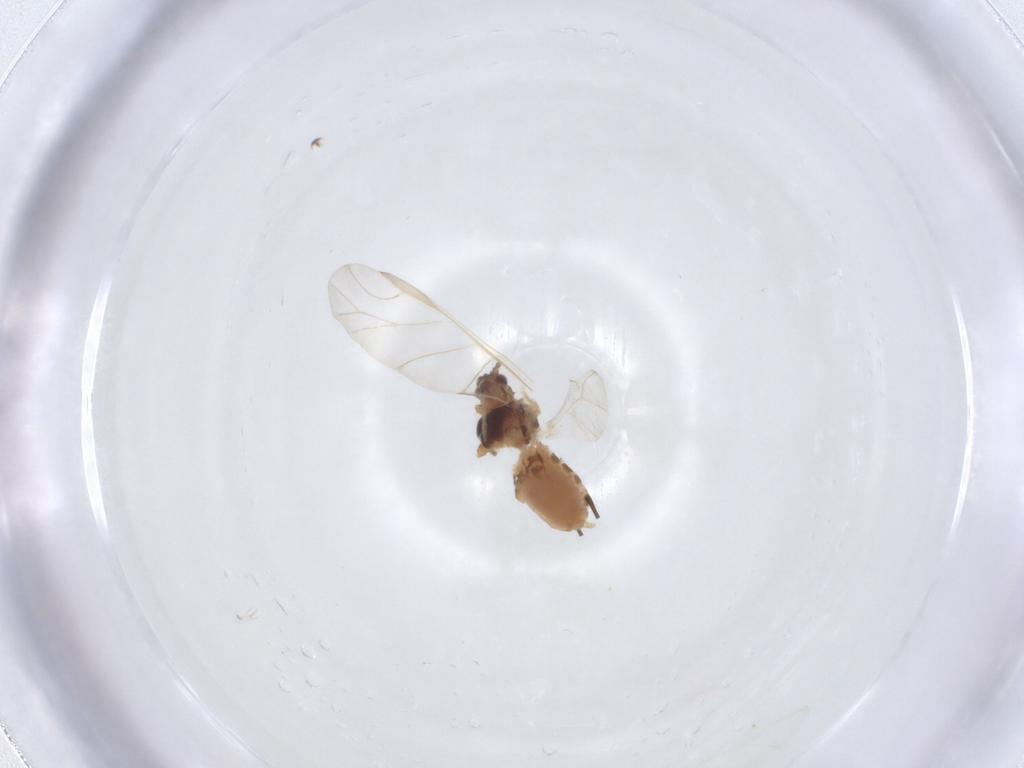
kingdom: Animalia
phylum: Arthropoda
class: Insecta
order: Hemiptera
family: Aphididae
